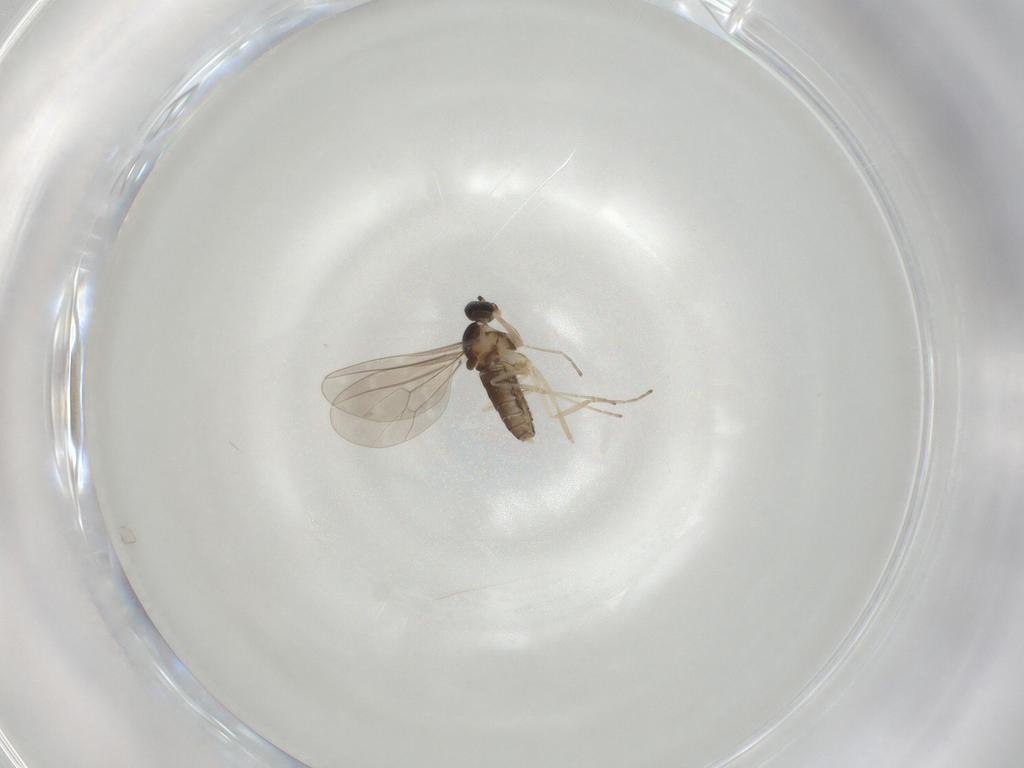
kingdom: Animalia
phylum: Arthropoda
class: Insecta
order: Diptera
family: Cecidomyiidae
